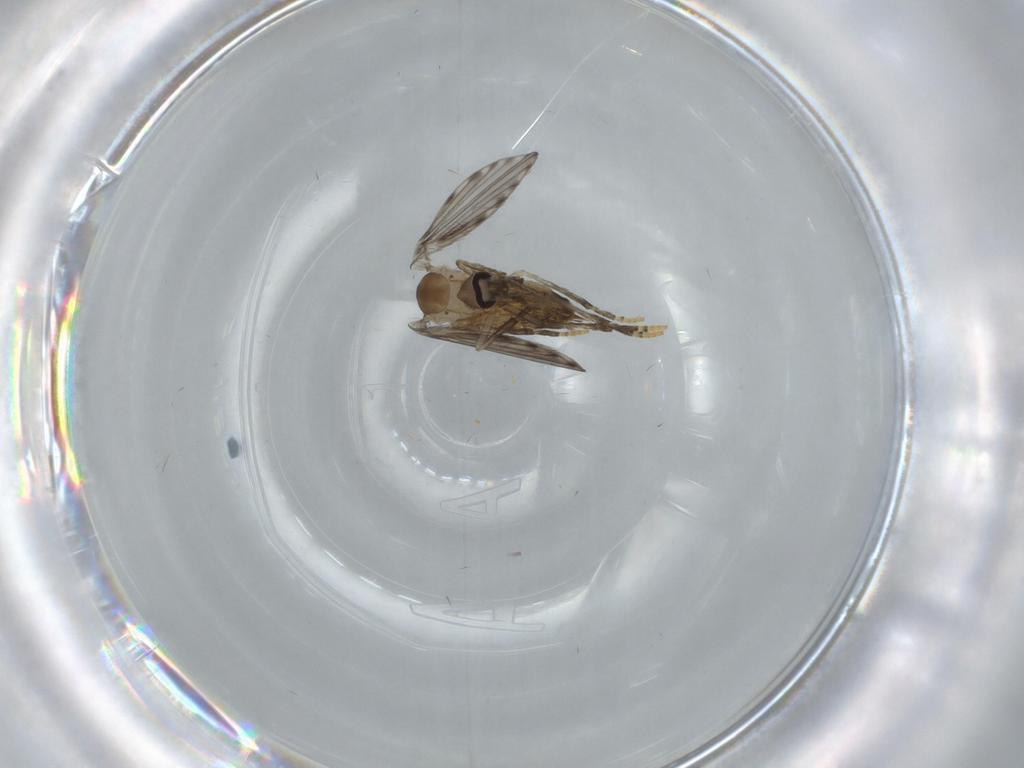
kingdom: Animalia
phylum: Arthropoda
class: Insecta
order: Diptera
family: Psychodidae
